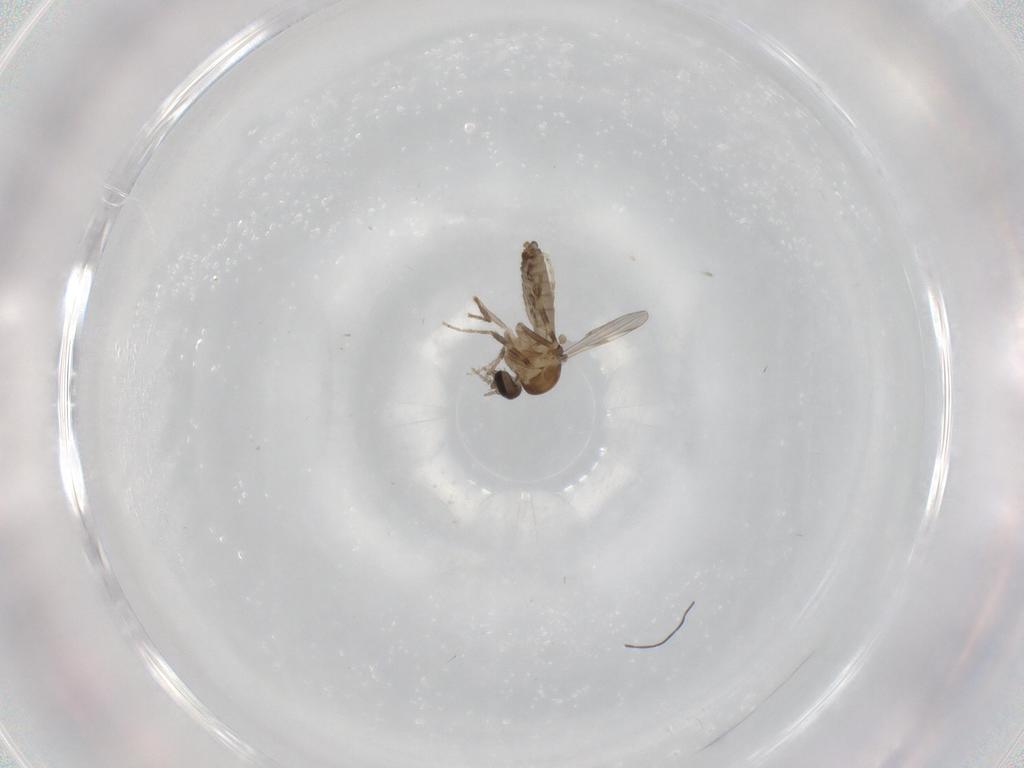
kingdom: Animalia
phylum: Arthropoda
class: Insecta
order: Diptera
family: Ceratopogonidae
